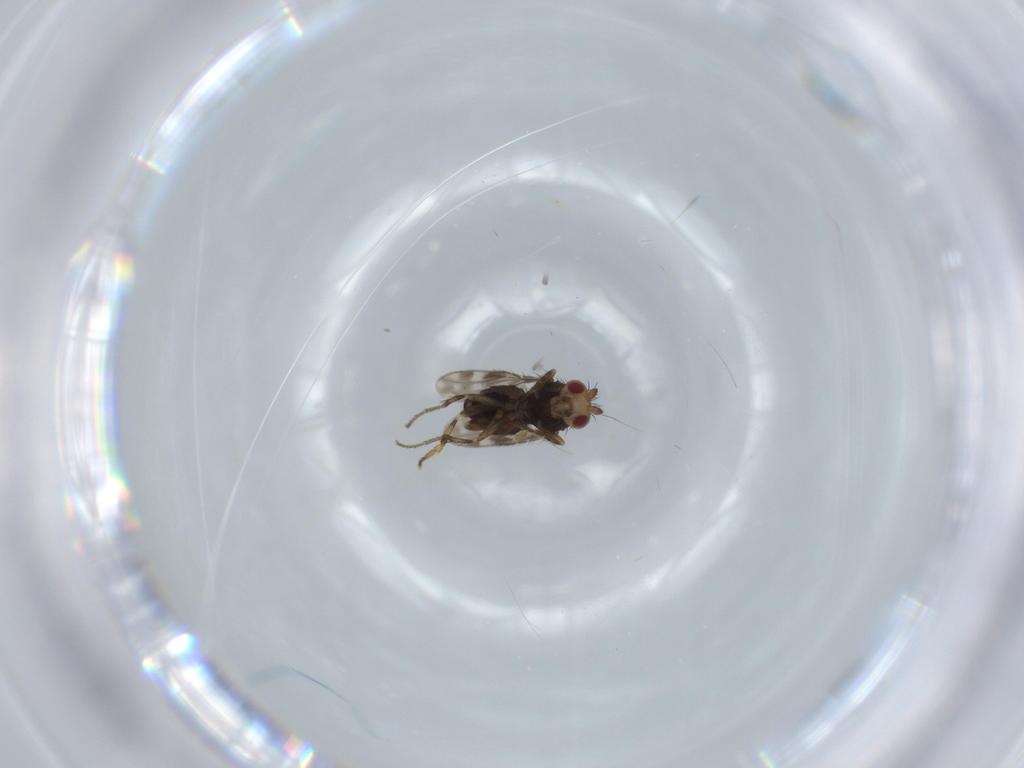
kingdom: Animalia
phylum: Arthropoda
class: Insecta
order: Diptera
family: Sphaeroceridae
